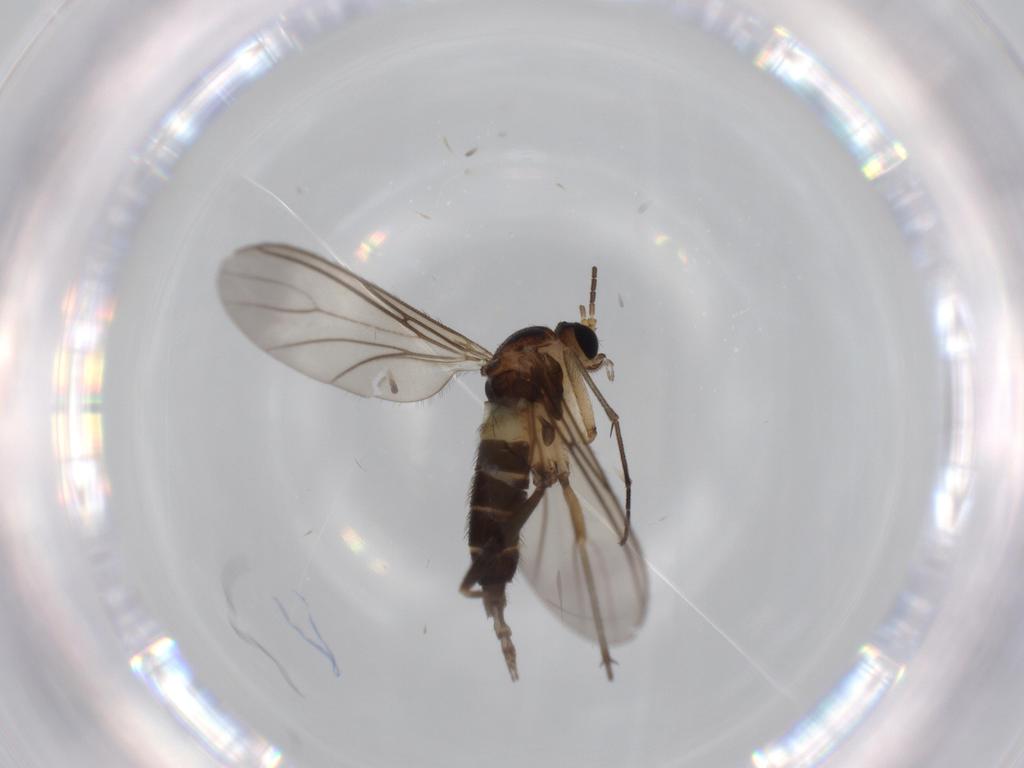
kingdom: Animalia
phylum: Arthropoda
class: Insecta
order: Diptera
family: Sciaridae
